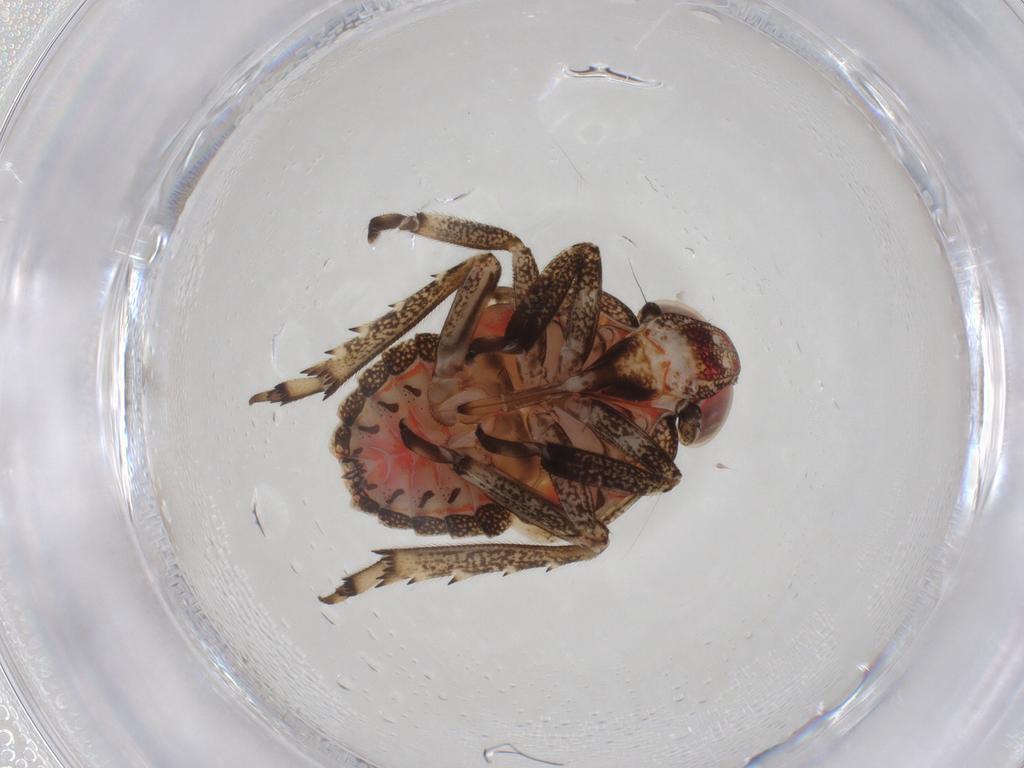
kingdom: Animalia
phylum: Arthropoda
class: Insecta
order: Hemiptera
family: Issidae
